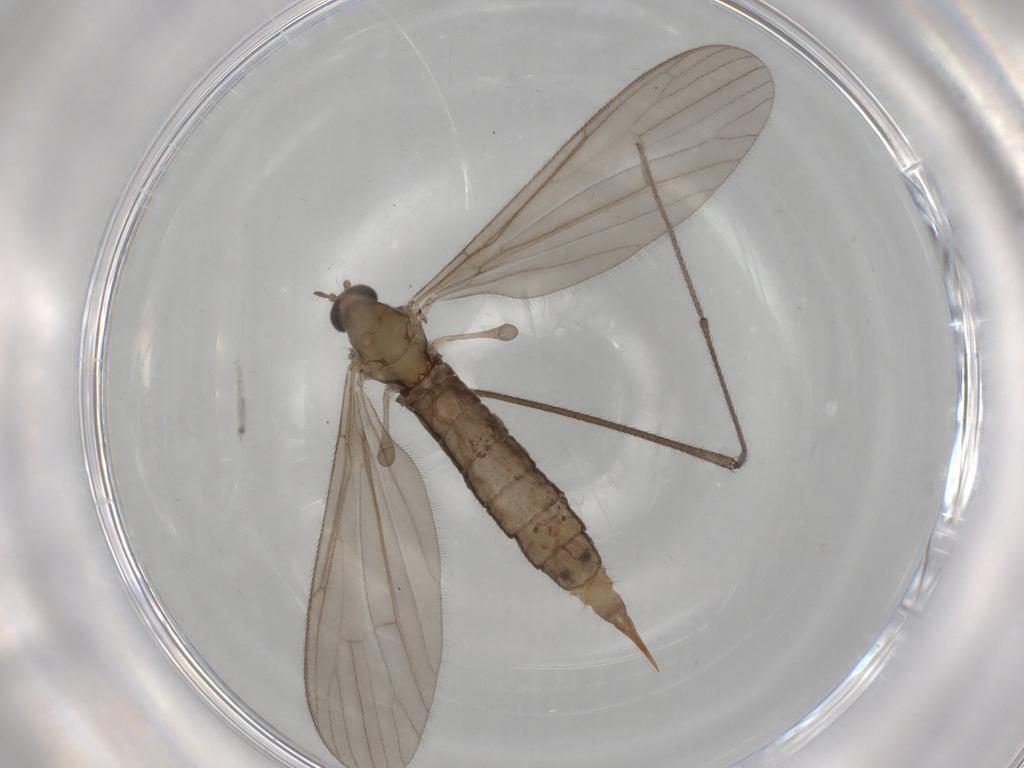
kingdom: Animalia
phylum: Arthropoda
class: Insecta
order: Diptera
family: Limoniidae
